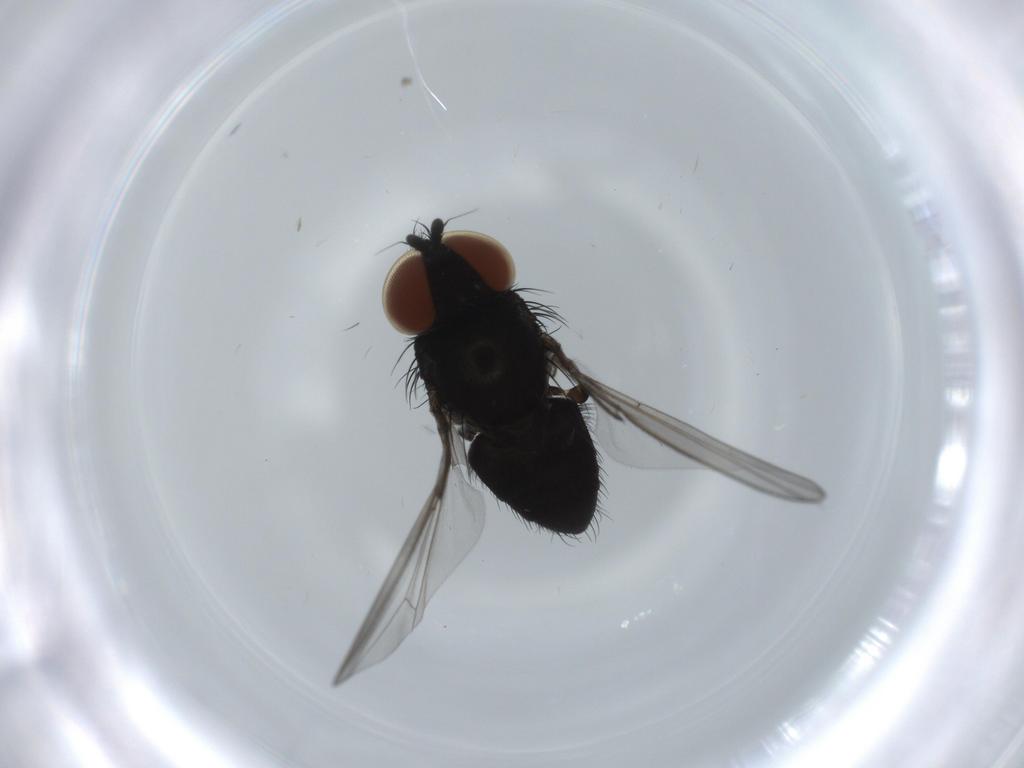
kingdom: Animalia
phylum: Arthropoda
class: Insecta
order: Diptera
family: Milichiidae
